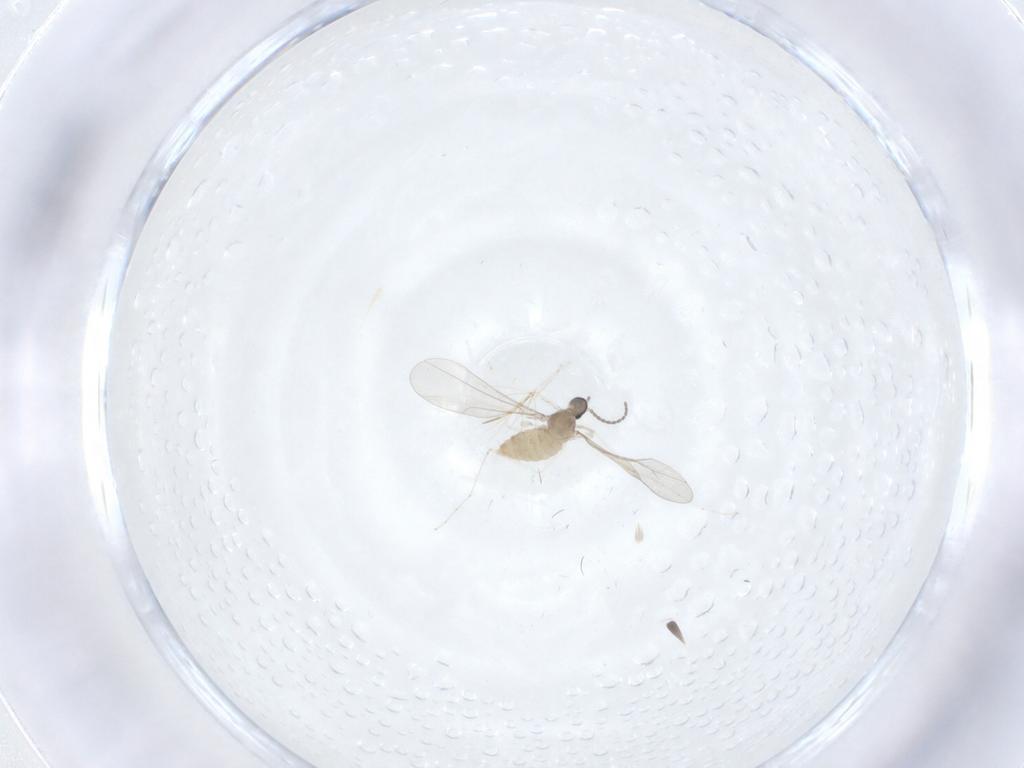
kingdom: Animalia
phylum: Arthropoda
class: Insecta
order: Diptera
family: Cecidomyiidae
